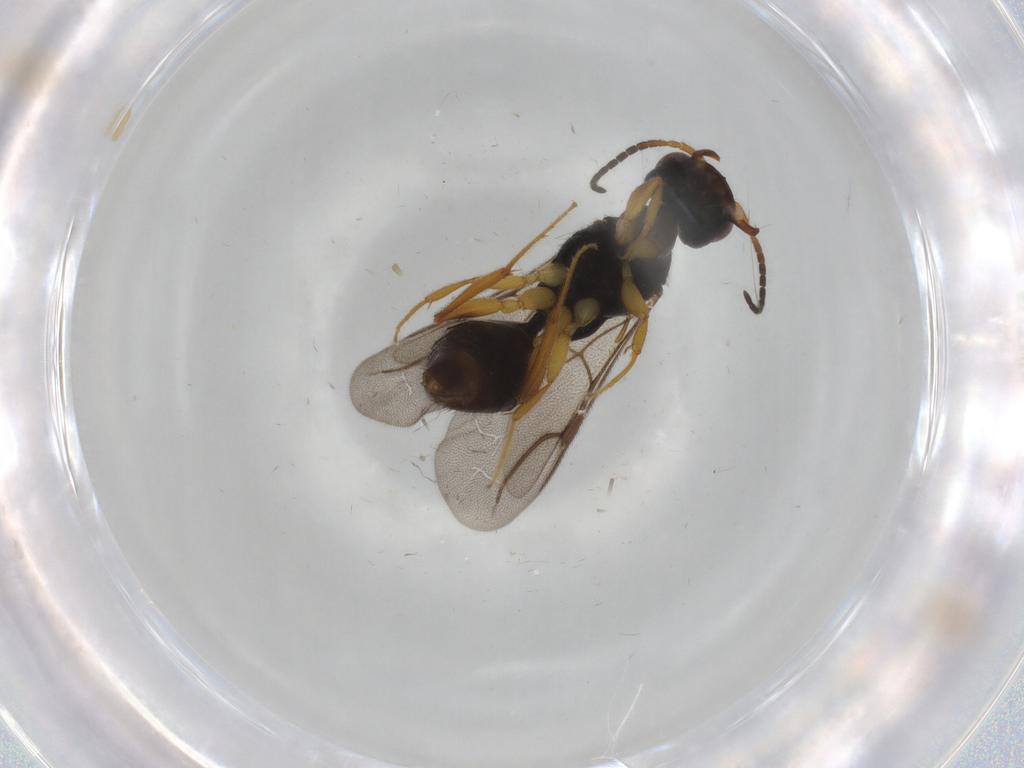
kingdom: Animalia
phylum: Arthropoda
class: Insecta
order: Hymenoptera
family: Bethylidae
